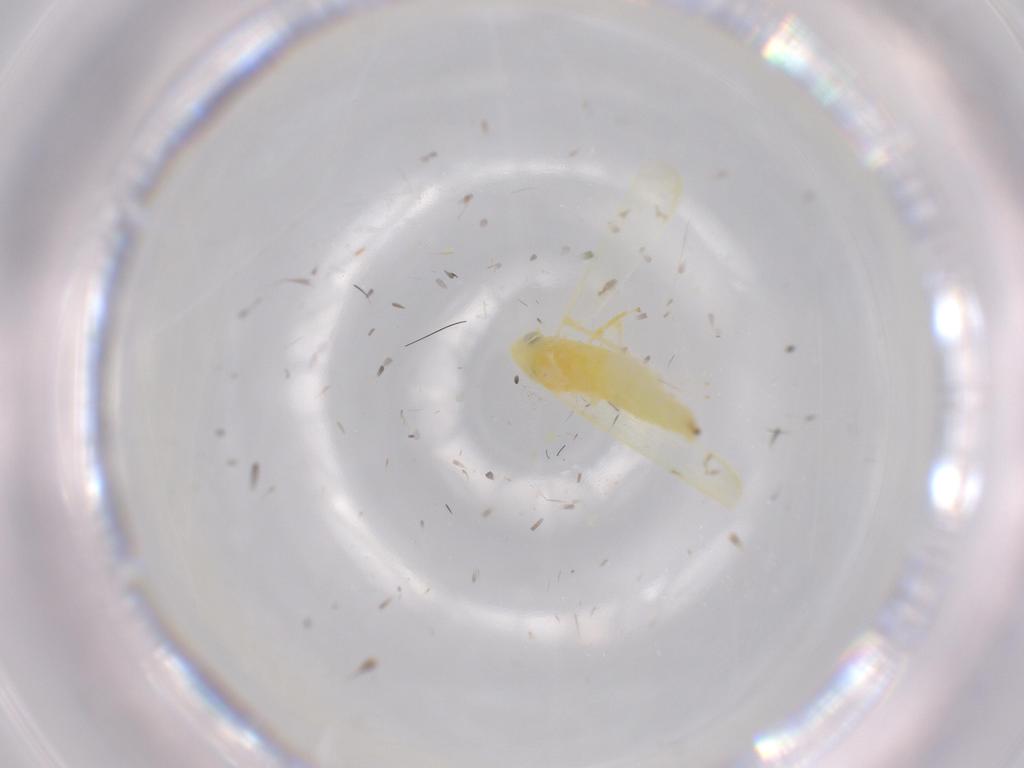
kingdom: Animalia
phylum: Arthropoda
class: Insecta
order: Hemiptera
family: Cicadellidae
